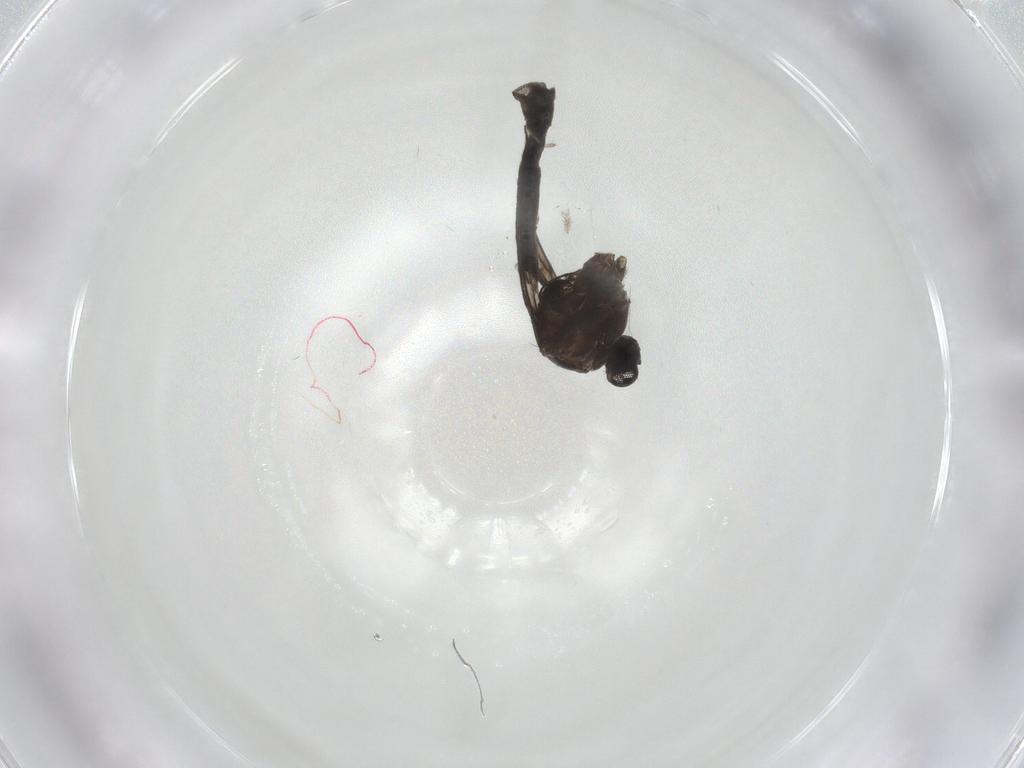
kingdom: Animalia
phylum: Arthropoda
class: Insecta
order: Diptera
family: Sciaridae
